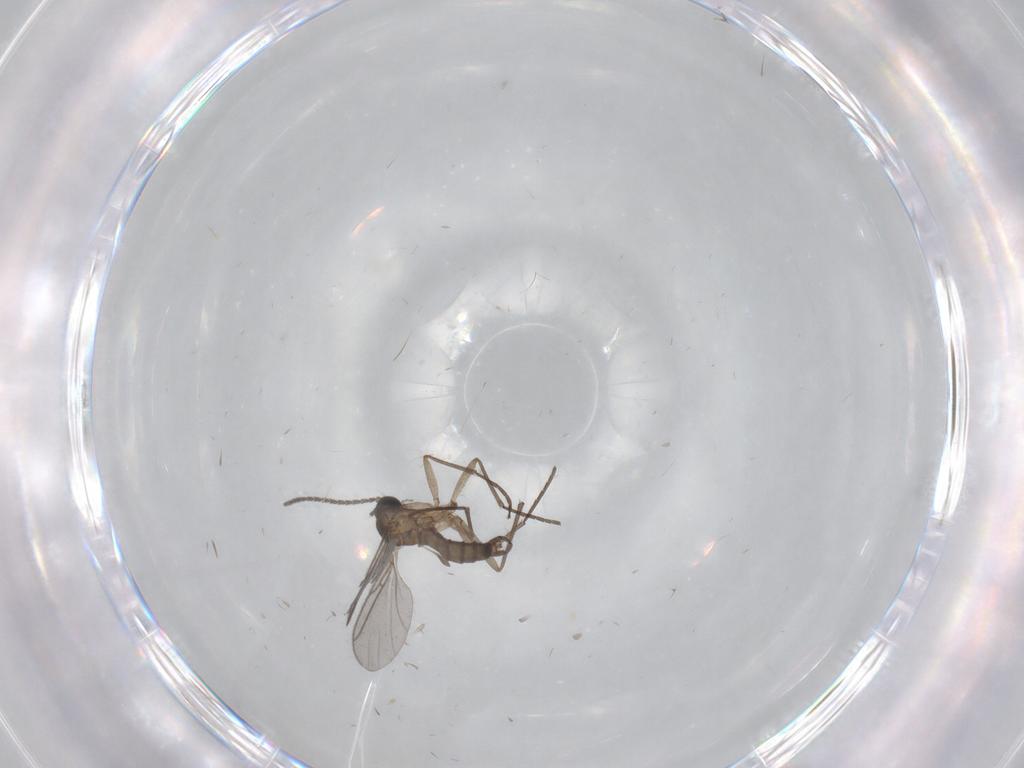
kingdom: Animalia
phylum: Arthropoda
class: Insecta
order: Diptera
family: Sciaridae
